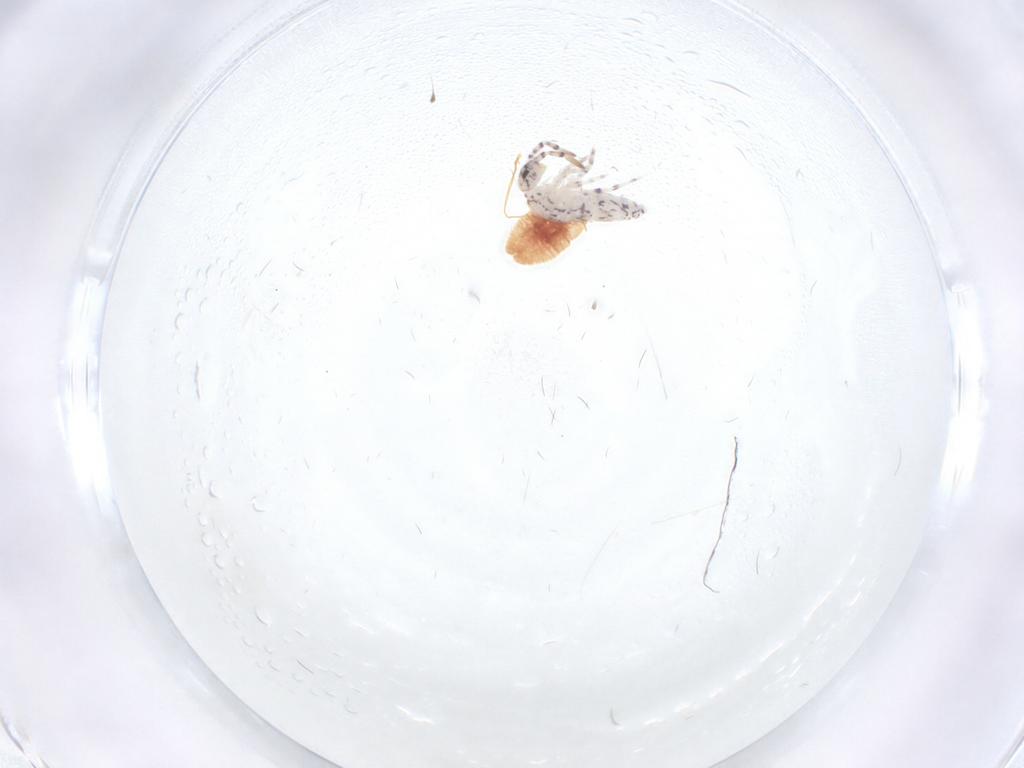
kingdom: Animalia
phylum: Arthropoda
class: Collembola
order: Entomobryomorpha
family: Entomobryidae
